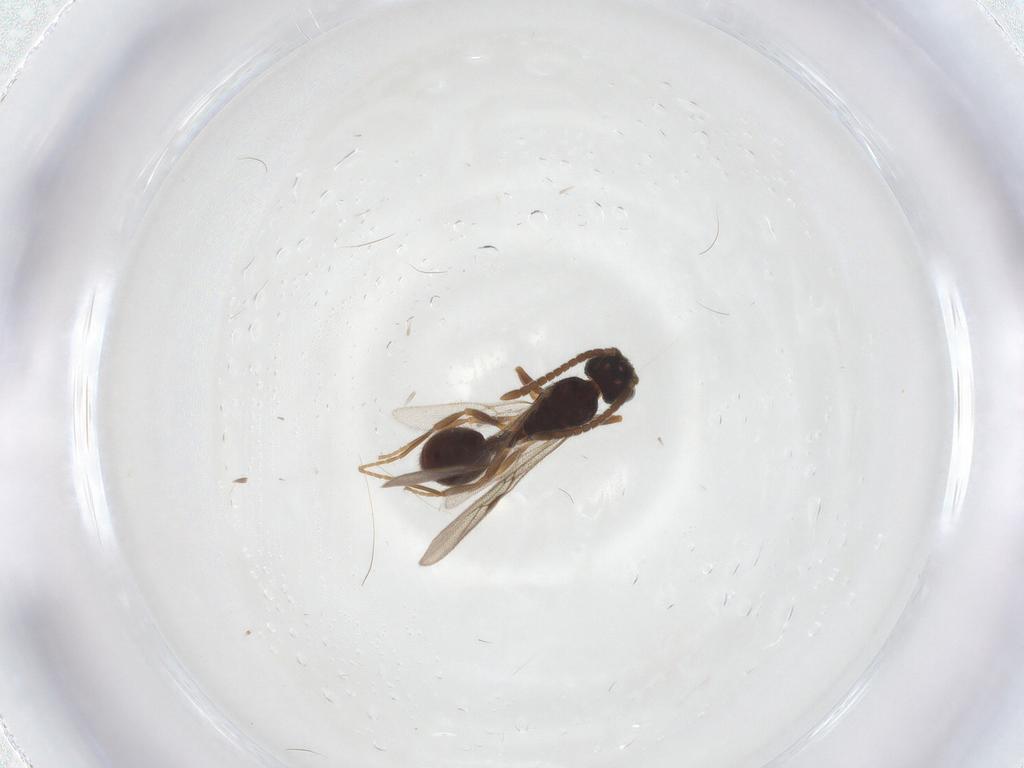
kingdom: Animalia
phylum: Arthropoda
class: Insecta
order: Hymenoptera
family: Formicidae
